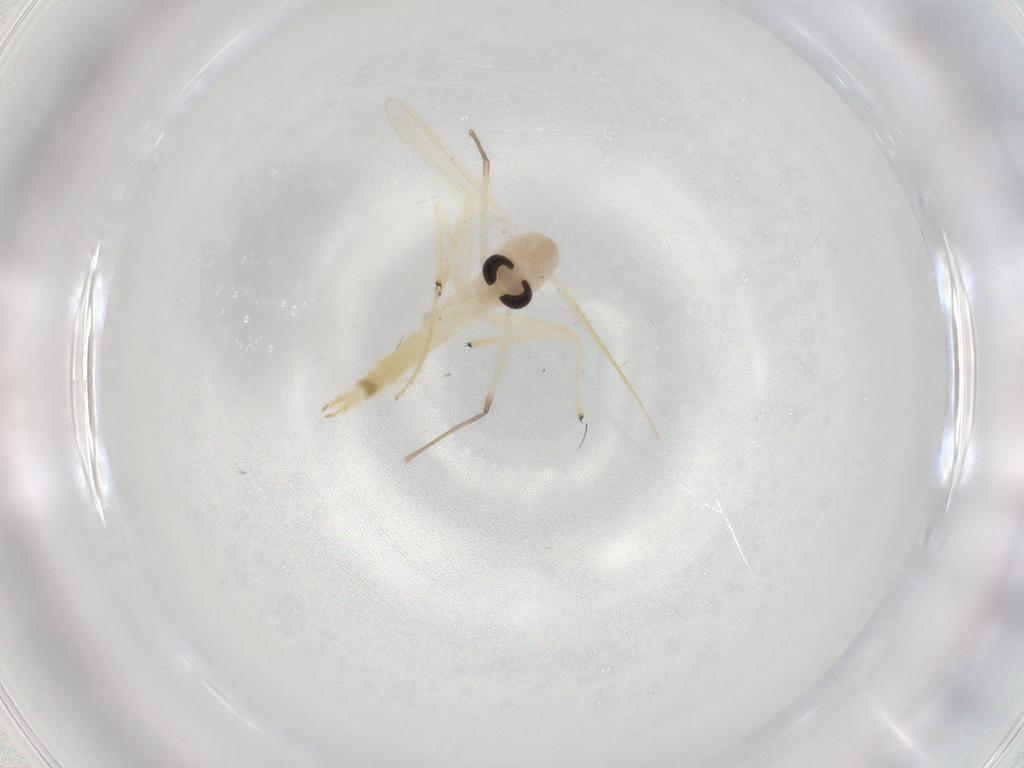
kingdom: Animalia
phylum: Arthropoda
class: Insecta
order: Diptera
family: Chironomidae
